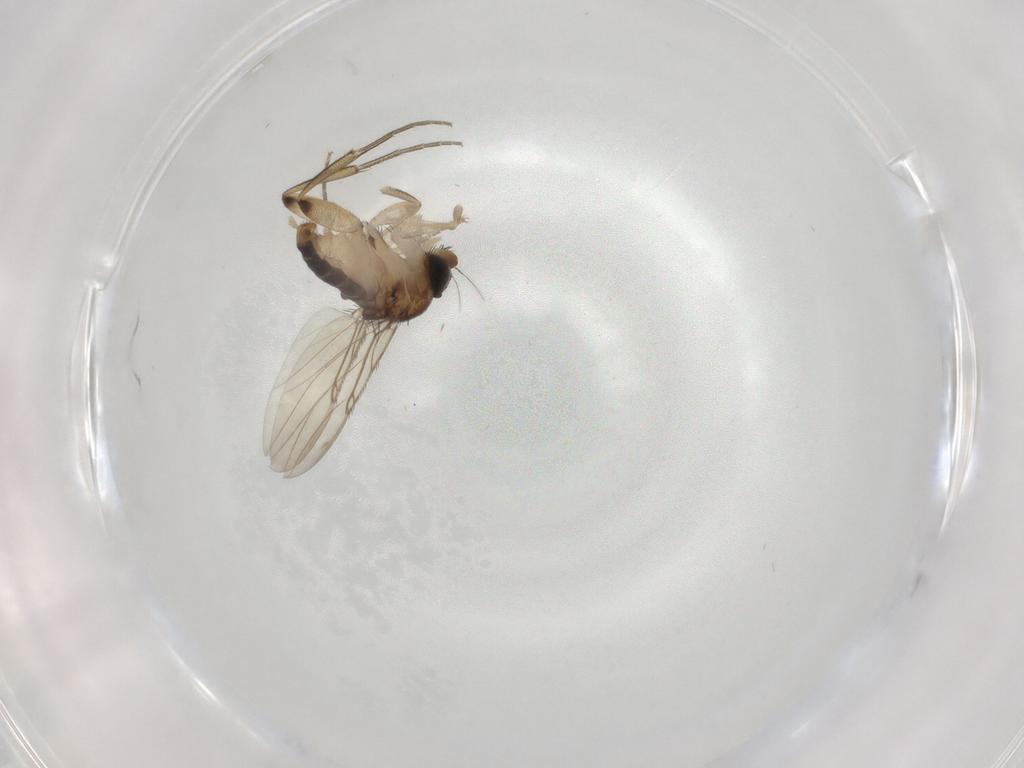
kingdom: Animalia
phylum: Arthropoda
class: Insecta
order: Diptera
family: Phoridae
